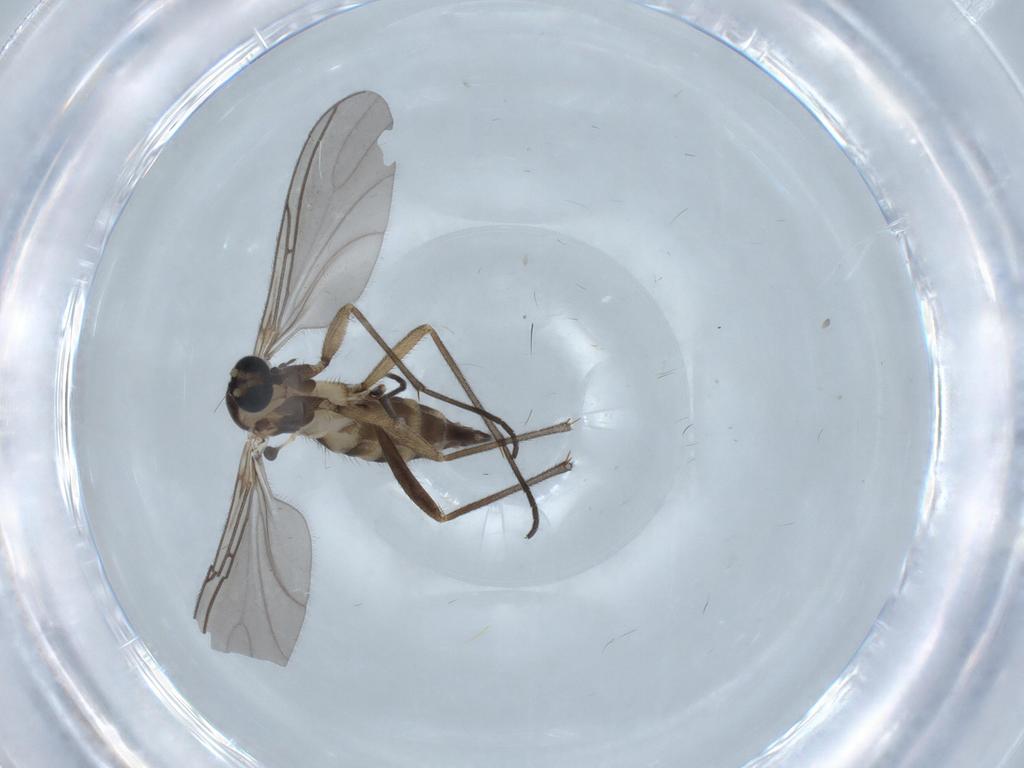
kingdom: Animalia
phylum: Arthropoda
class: Insecta
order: Diptera
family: Sciaridae
